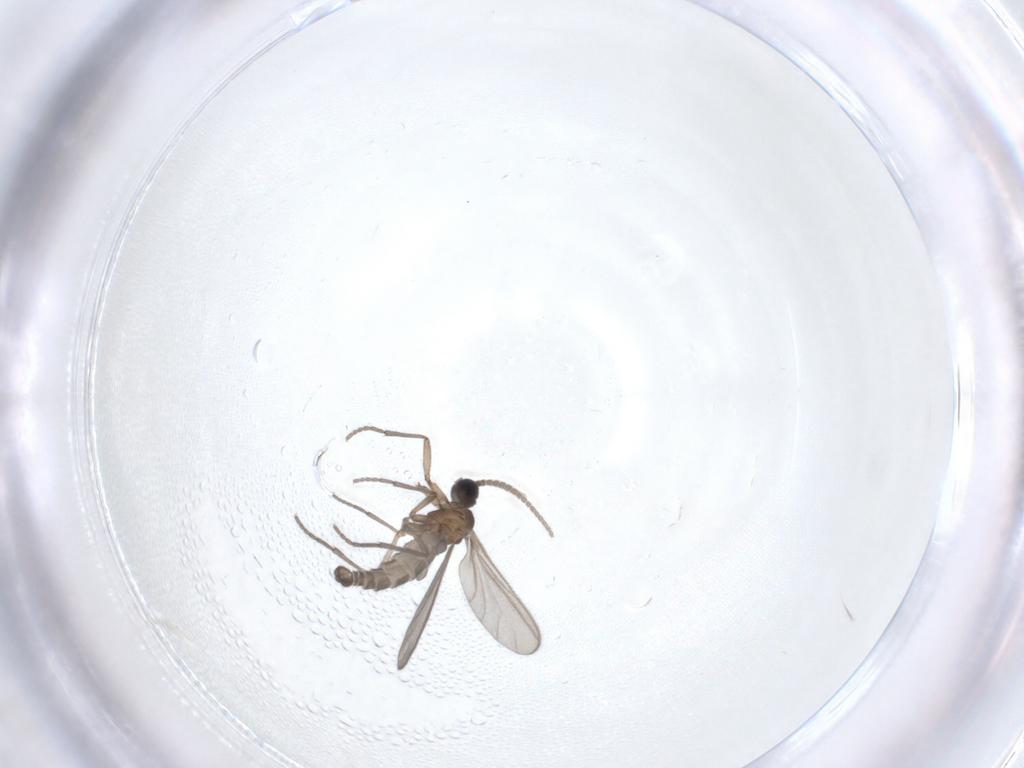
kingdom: Animalia
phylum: Arthropoda
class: Insecta
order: Diptera
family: Sciaridae
